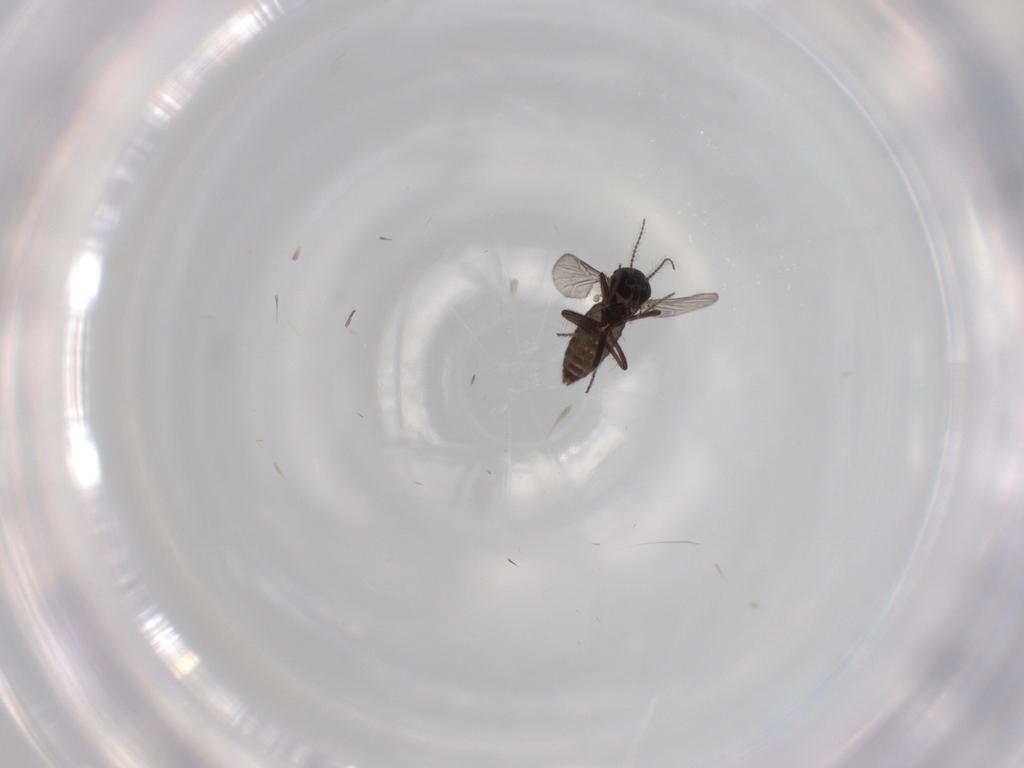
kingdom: Animalia
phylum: Arthropoda
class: Insecta
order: Diptera
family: Ceratopogonidae
